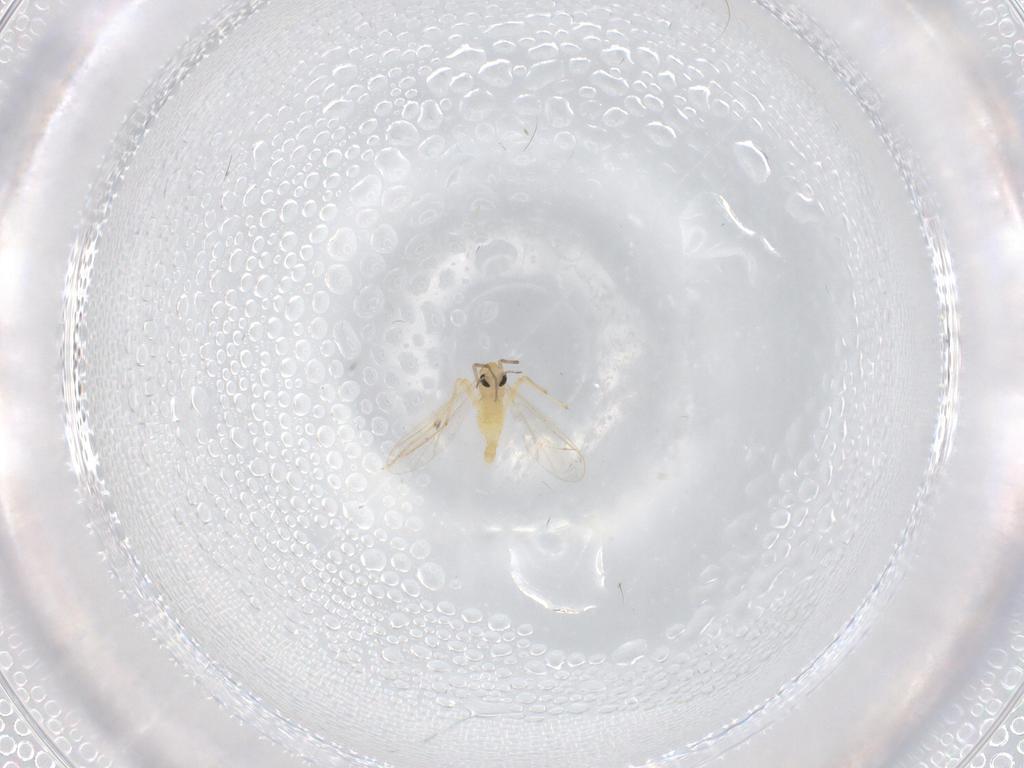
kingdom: Animalia
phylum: Arthropoda
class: Insecta
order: Diptera
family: Chironomidae
